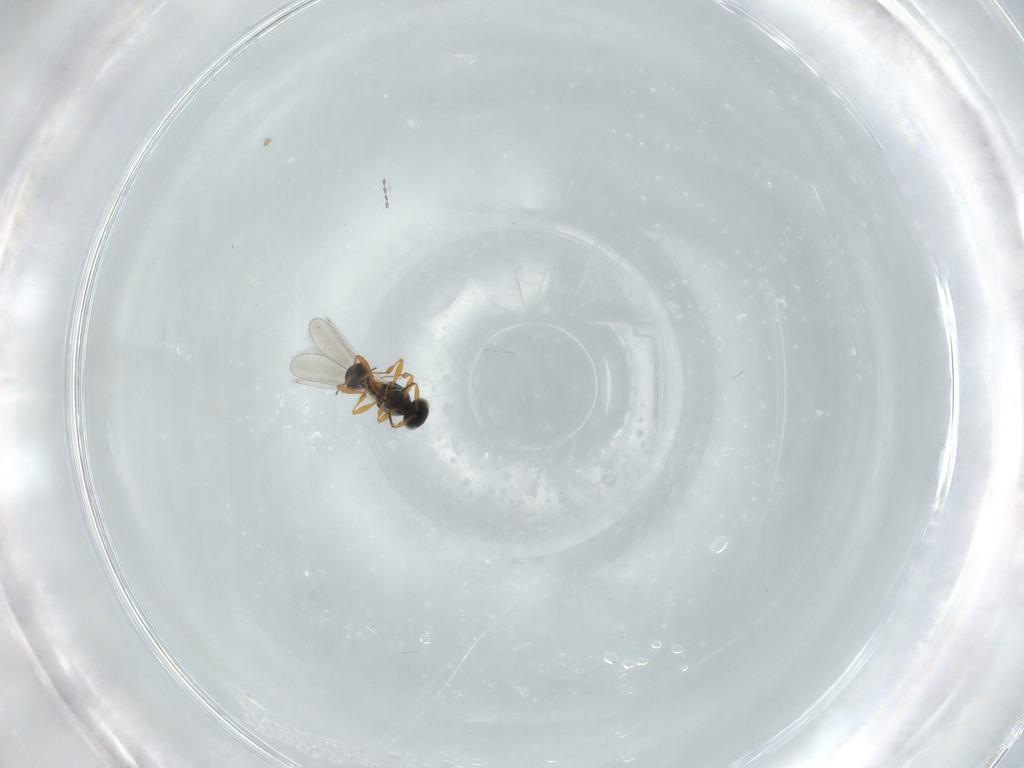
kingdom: Animalia
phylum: Arthropoda
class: Insecta
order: Hymenoptera
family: Platygastridae
